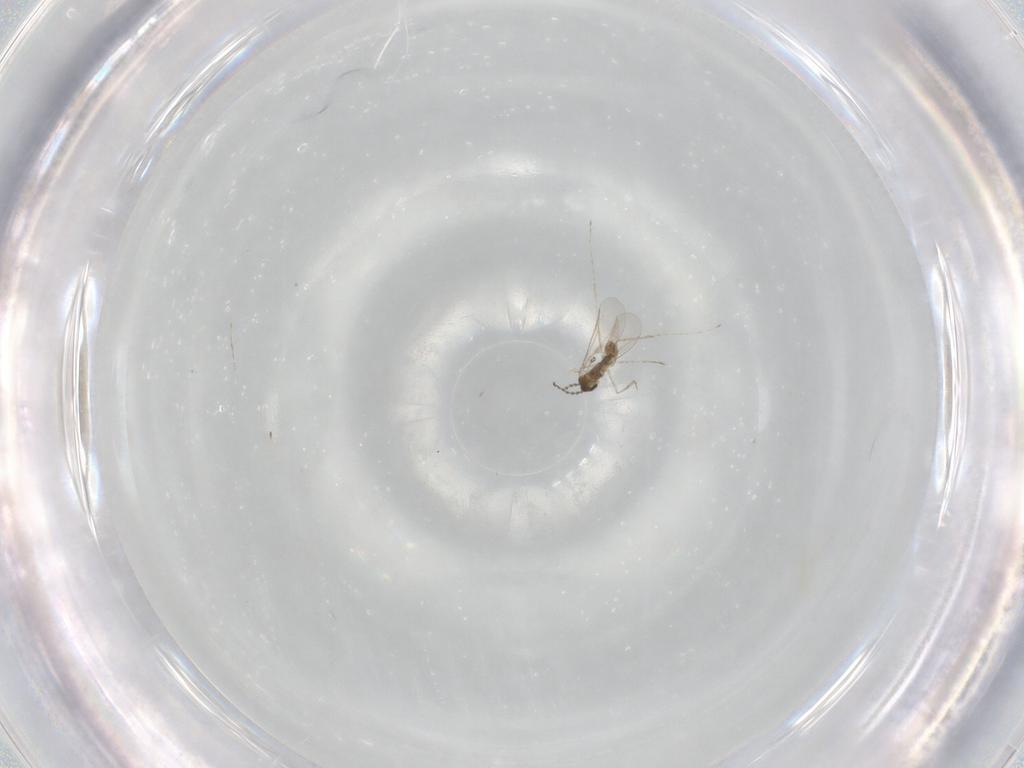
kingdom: Animalia
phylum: Arthropoda
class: Insecta
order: Diptera
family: Cecidomyiidae
